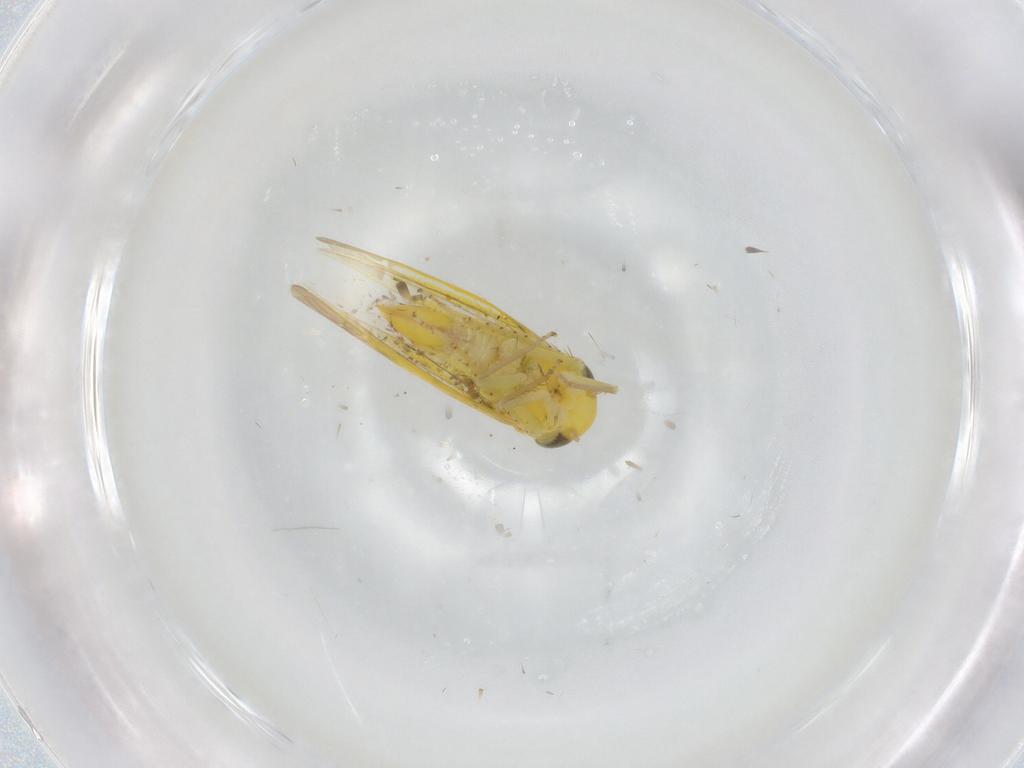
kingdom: Animalia
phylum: Arthropoda
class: Insecta
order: Hemiptera
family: Cicadellidae
